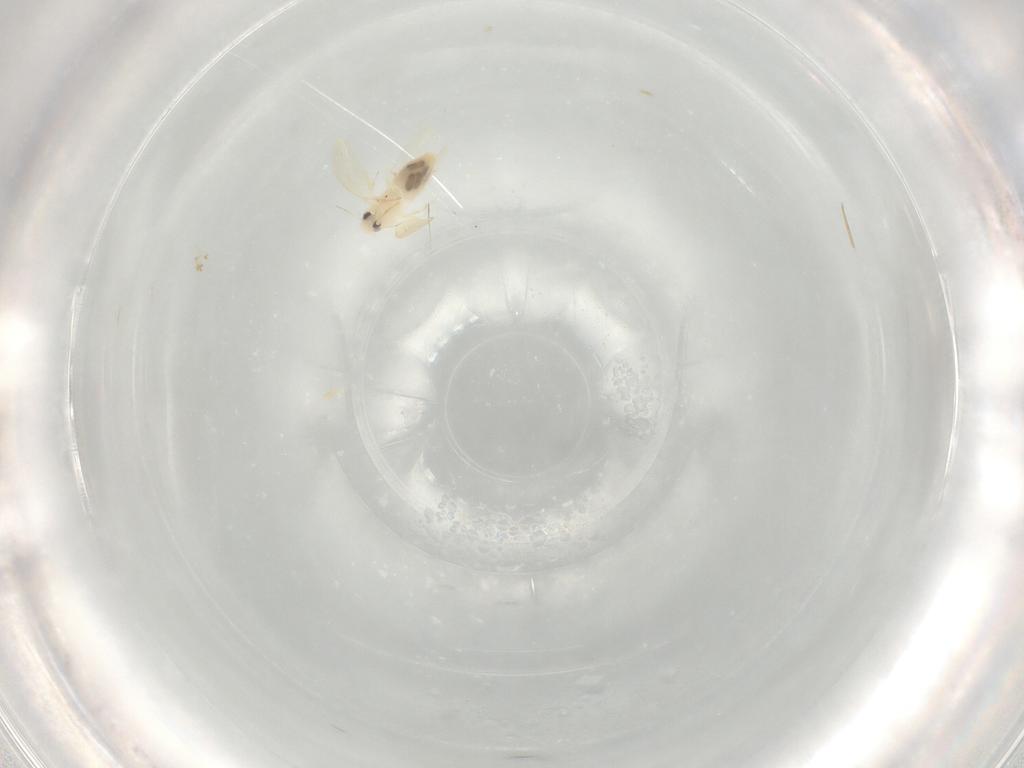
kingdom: Animalia
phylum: Arthropoda
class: Insecta
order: Hemiptera
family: Aleyrodidae
